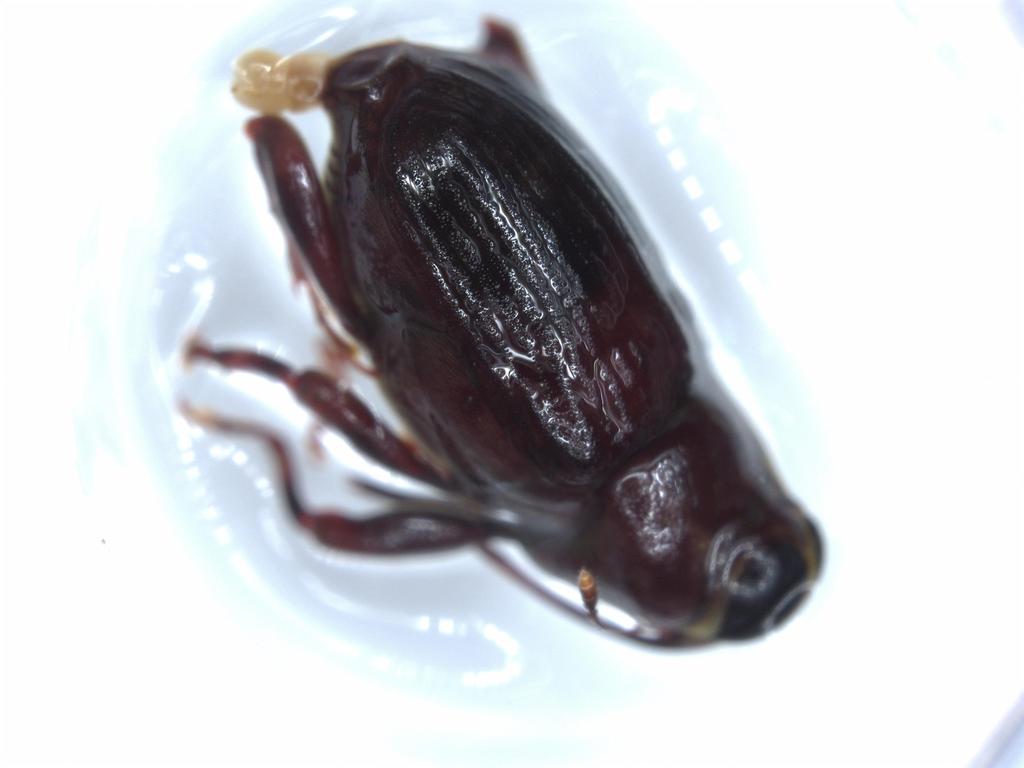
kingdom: Animalia
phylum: Arthropoda
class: Insecta
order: Coleoptera
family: Curculionidae
